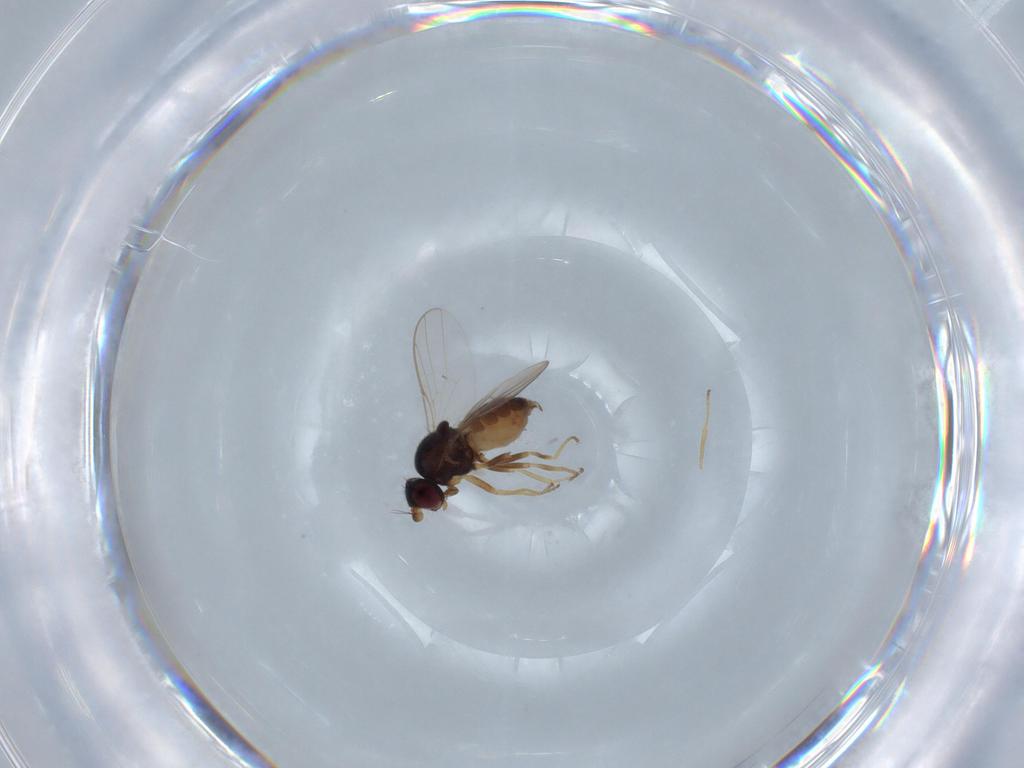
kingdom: Animalia
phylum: Arthropoda
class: Insecta
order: Diptera
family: Chloropidae
